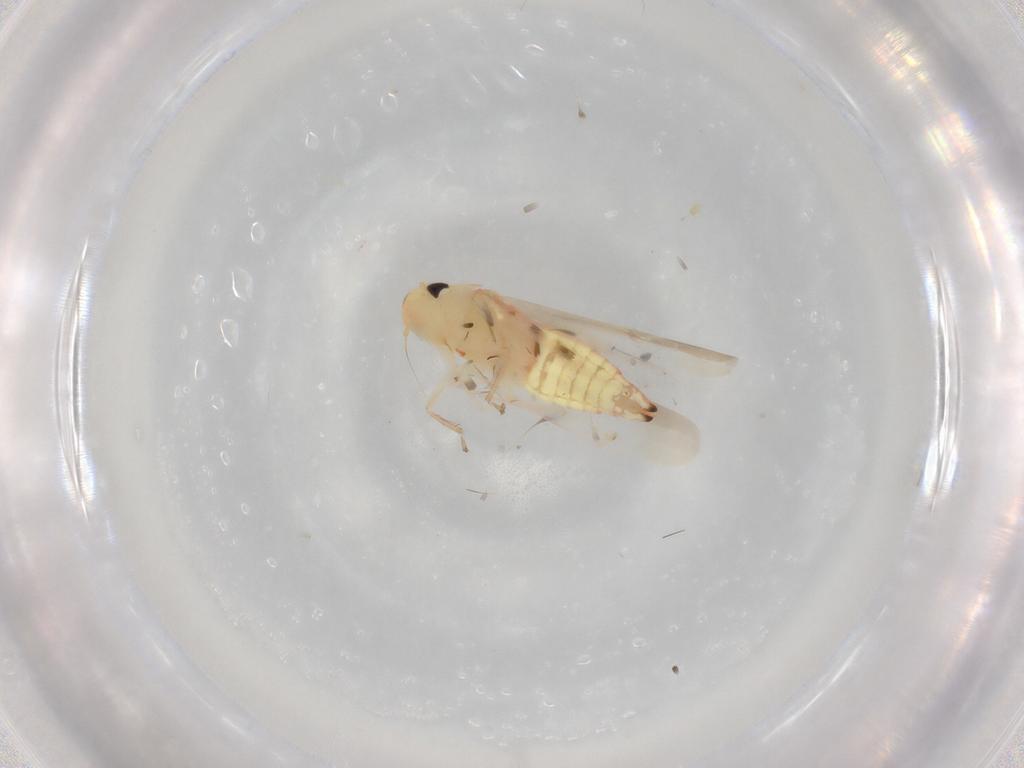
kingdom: Animalia
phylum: Arthropoda
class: Insecta
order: Hemiptera
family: Cicadellidae
